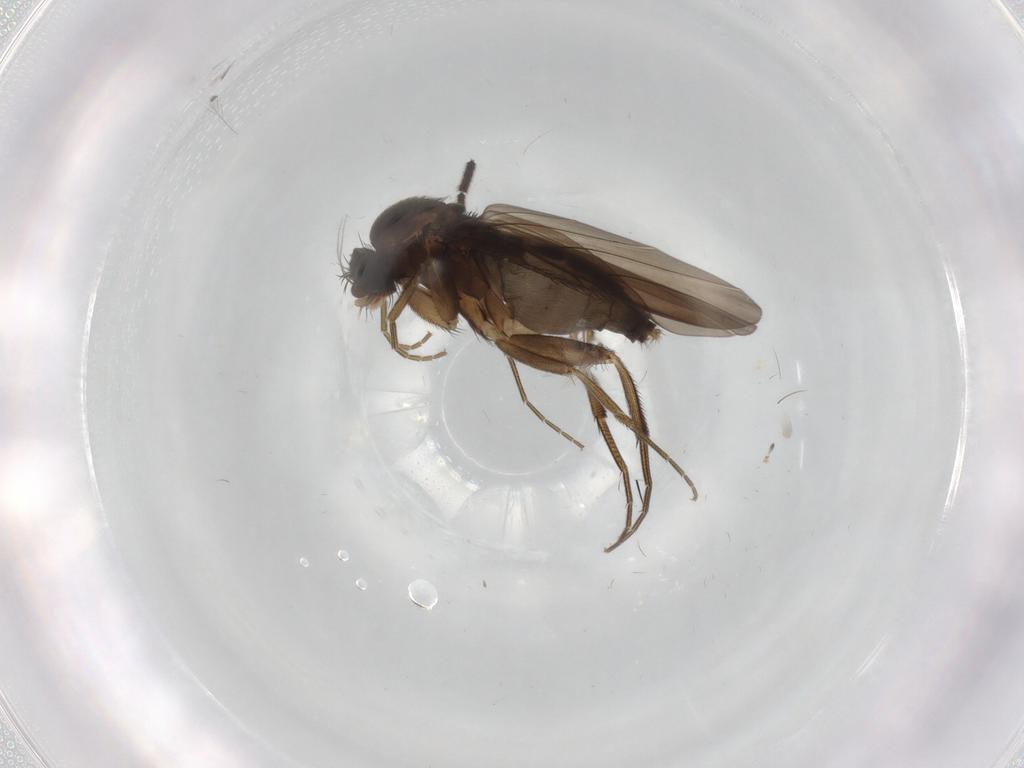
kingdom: Animalia
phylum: Arthropoda
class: Insecta
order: Diptera
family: Phoridae
